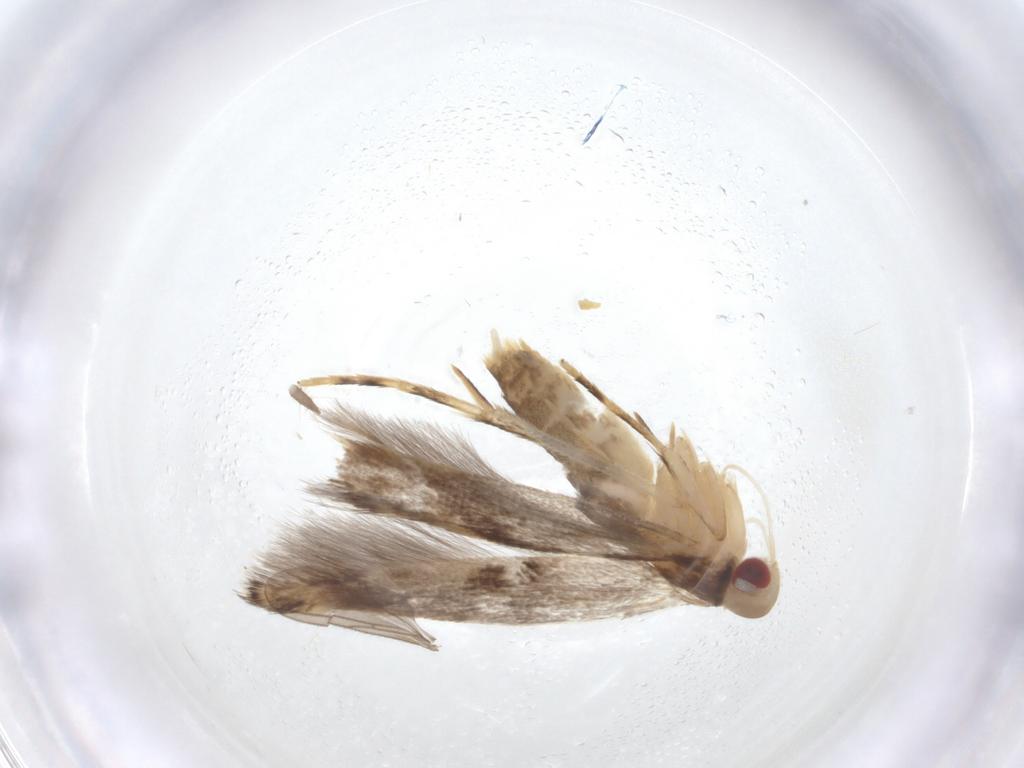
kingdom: Animalia
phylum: Arthropoda
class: Insecta
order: Lepidoptera
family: Cosmopterigidae
